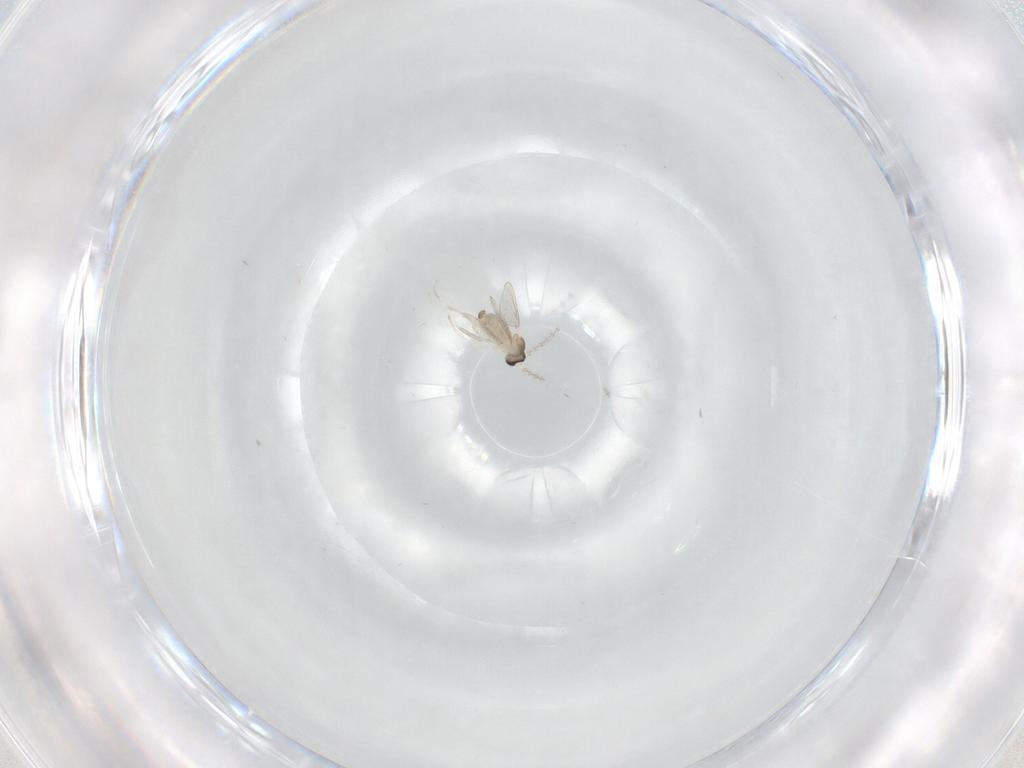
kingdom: Animalia
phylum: Arthropoda
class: Insecta
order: Diptera
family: Cecidomyiidae
